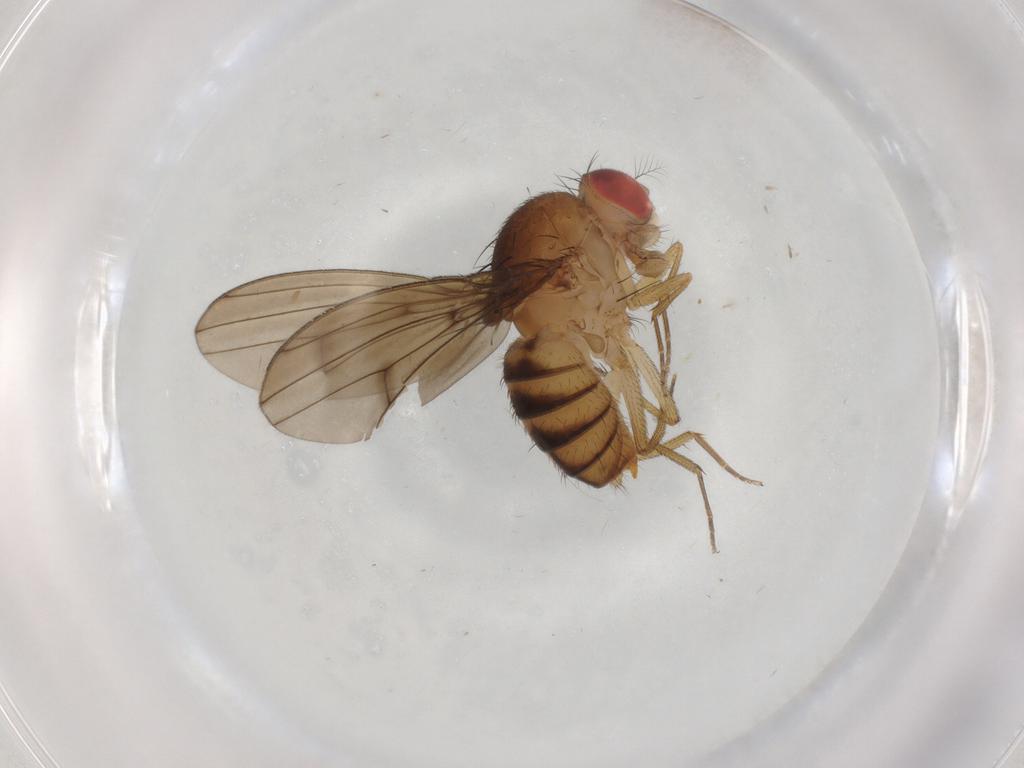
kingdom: Animalia
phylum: Arthropoda
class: Insecta
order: Diptera
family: Drosophilidae
